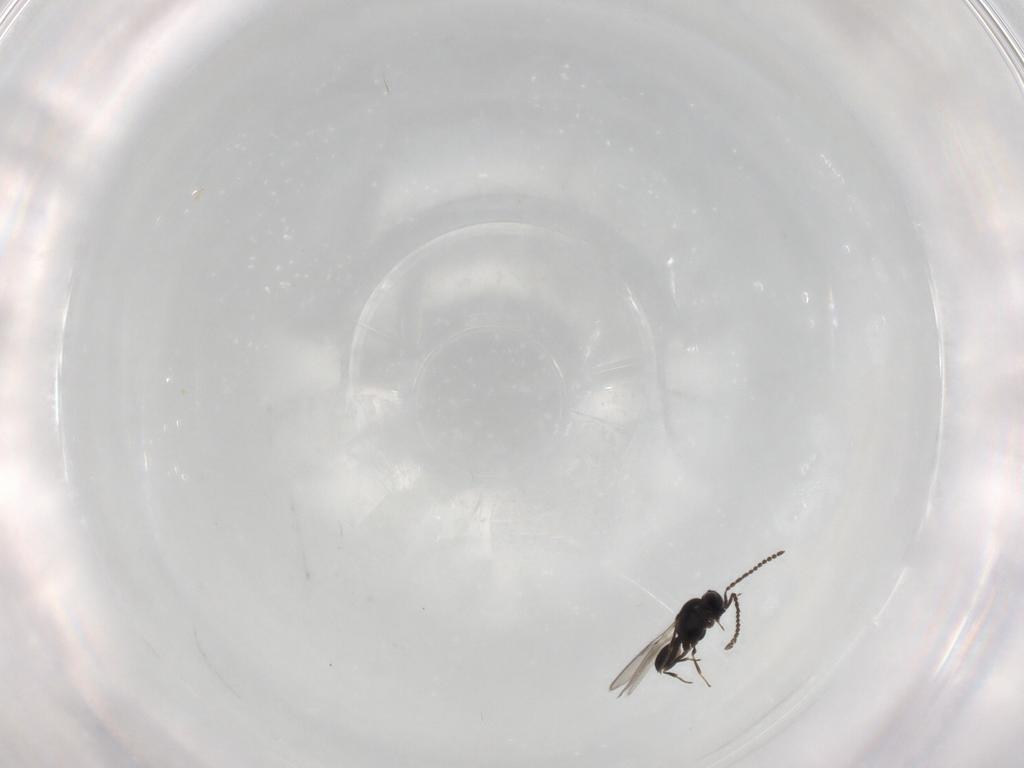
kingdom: Animalia
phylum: Arthropoda
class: Insecta
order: Hymenoptera
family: Scelionidae
